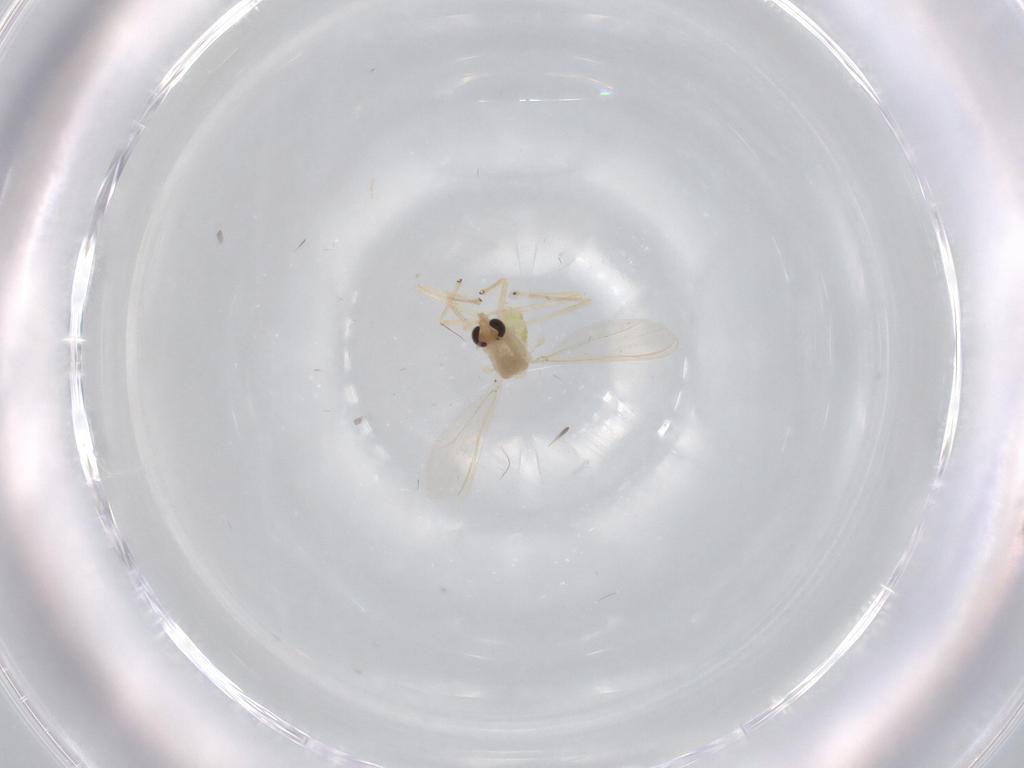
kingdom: Animalia
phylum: Arthropoda
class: Insecta
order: Diptera
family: Chironomidae
